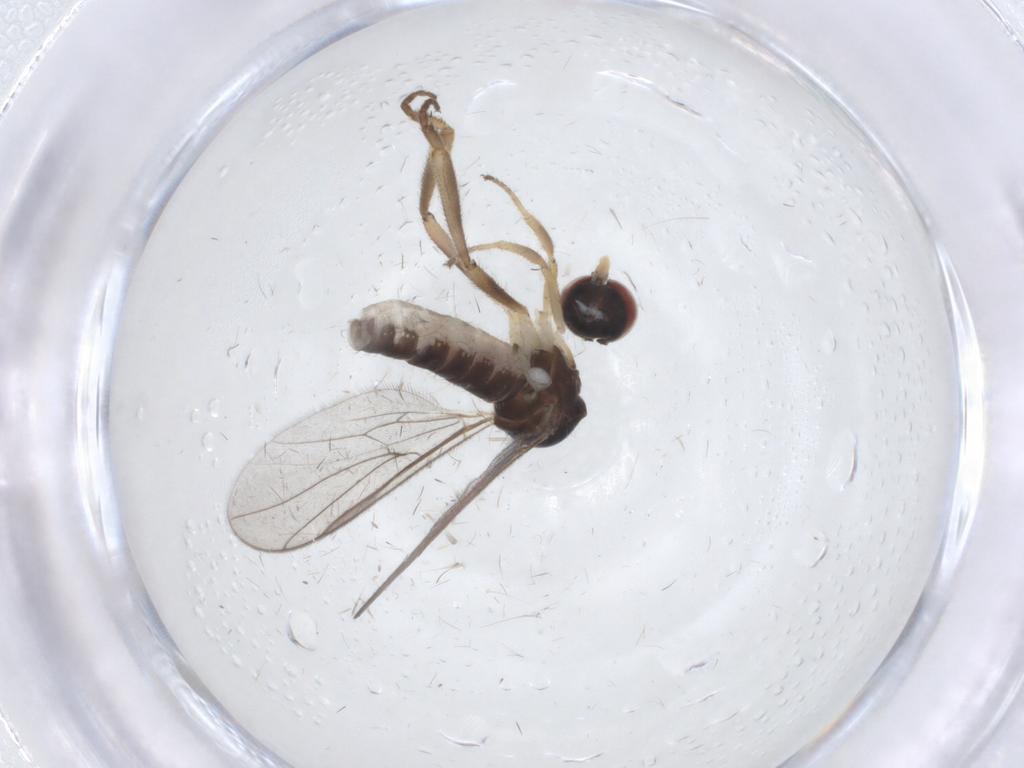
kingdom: Animalia
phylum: Arthropoda
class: Insecta
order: Diptera
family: Hybotidae
